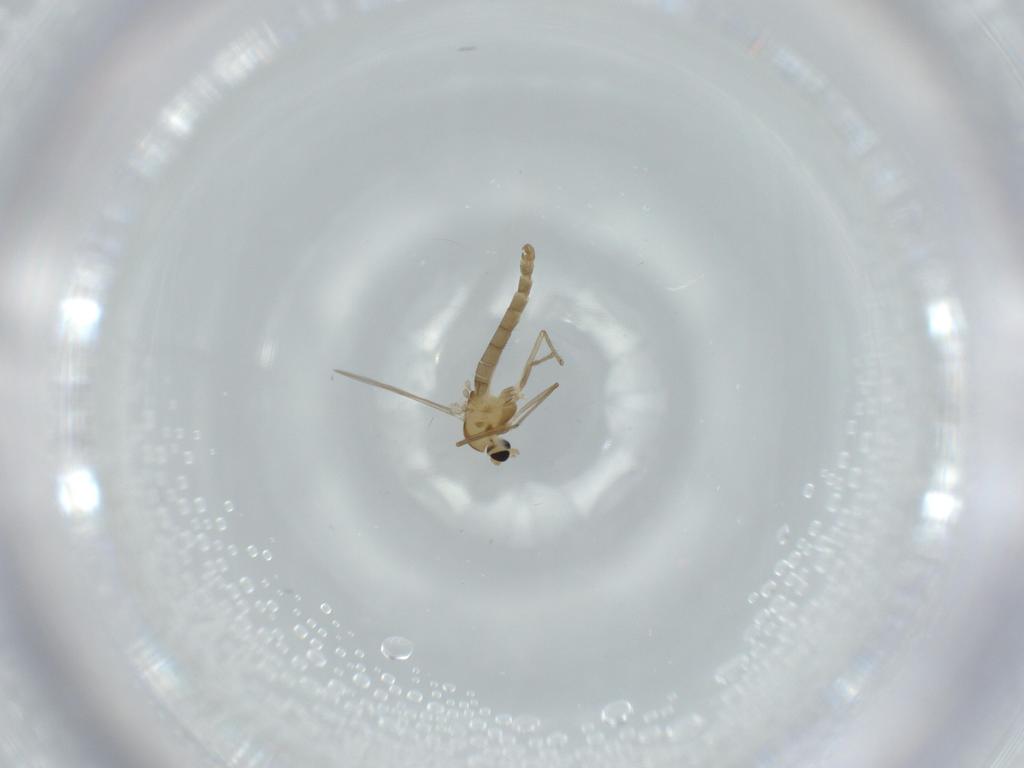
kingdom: Animalia
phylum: Arthropoda
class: Insecta
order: Diptera
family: Chironomidae
